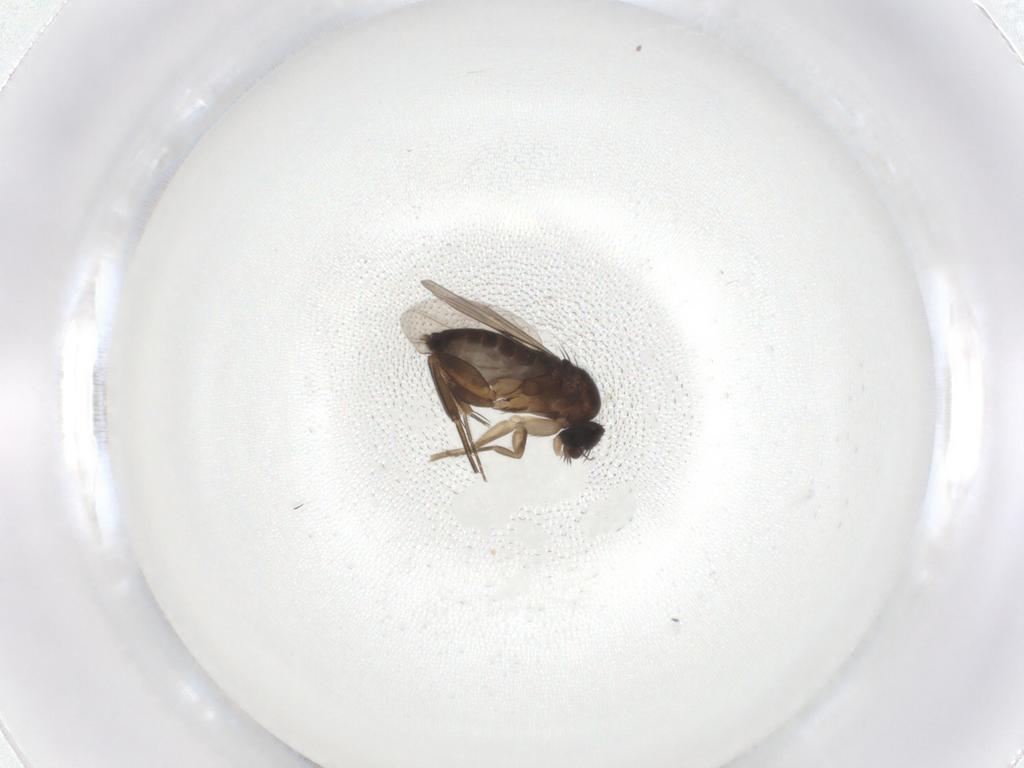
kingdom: Animalia
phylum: Arthropoda
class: Insecta
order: Diptera
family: Phoridae
